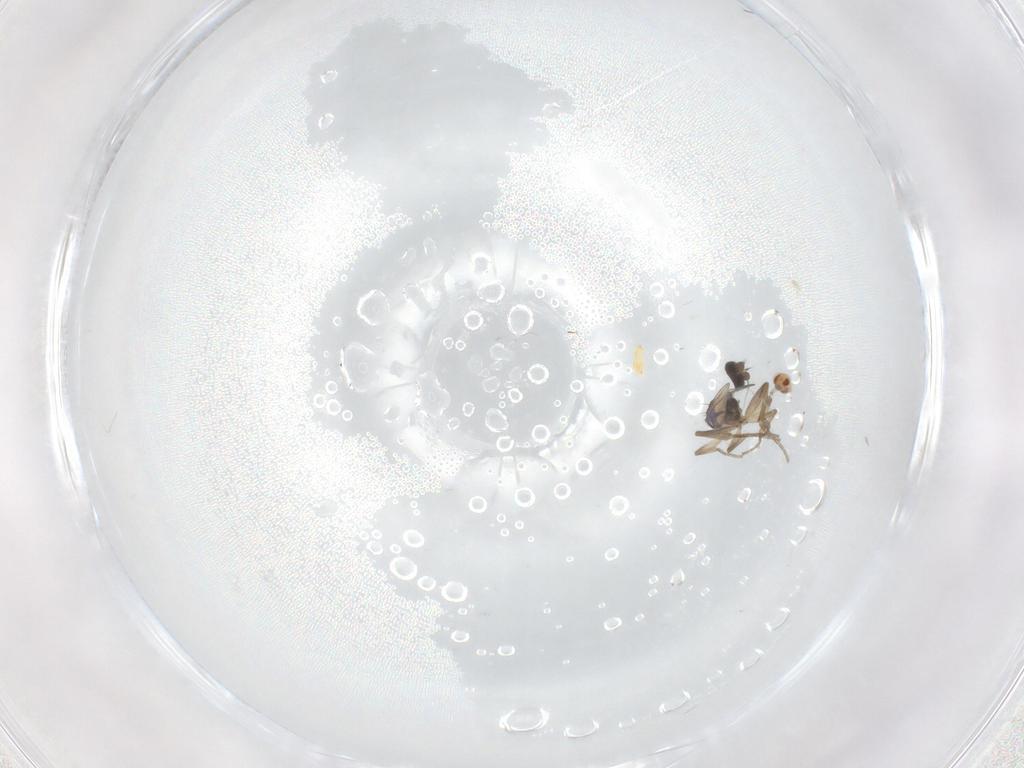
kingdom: Animalia
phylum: Arthropoda
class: Insecta
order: Diptera
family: Phoridae
